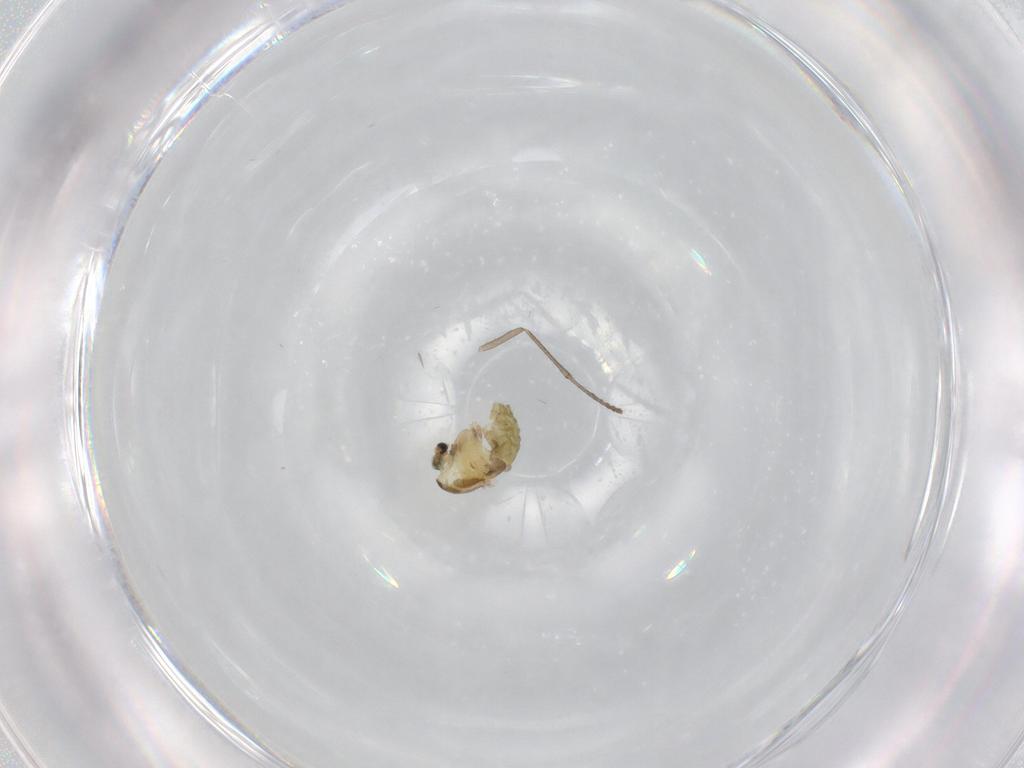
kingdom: Animalia
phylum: Arthropoda
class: Insecta
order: Diptera
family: Psychodidae
